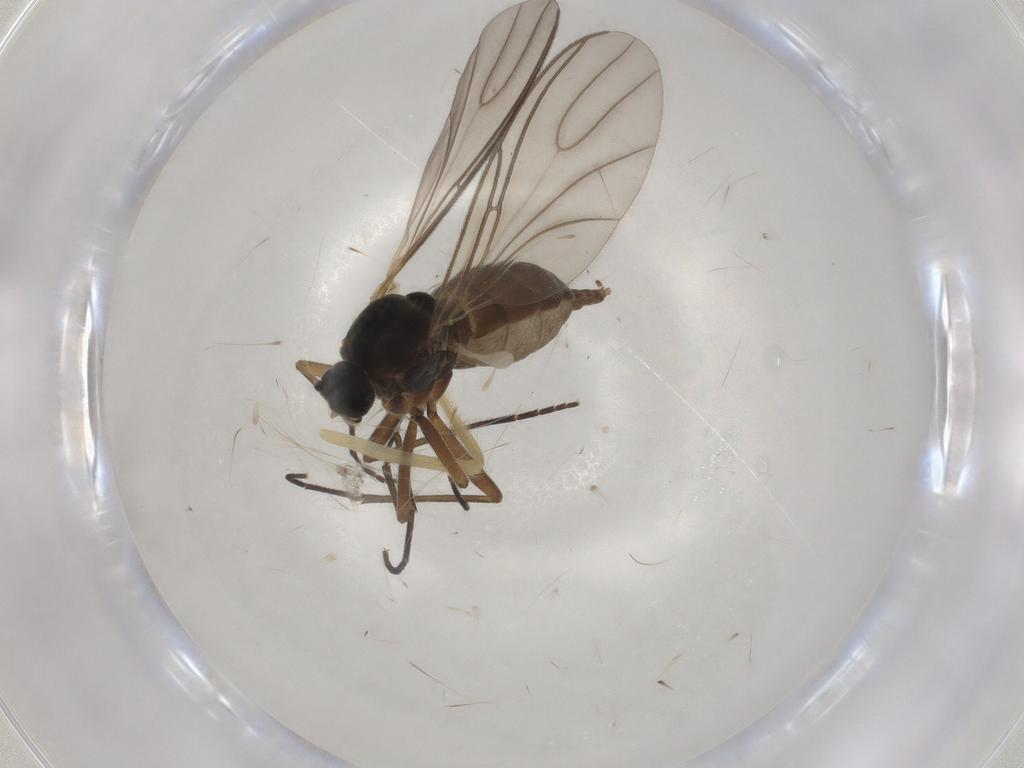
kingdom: Animalia
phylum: Arthropoda
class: Insecta
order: Diptera
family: Sciaridae
